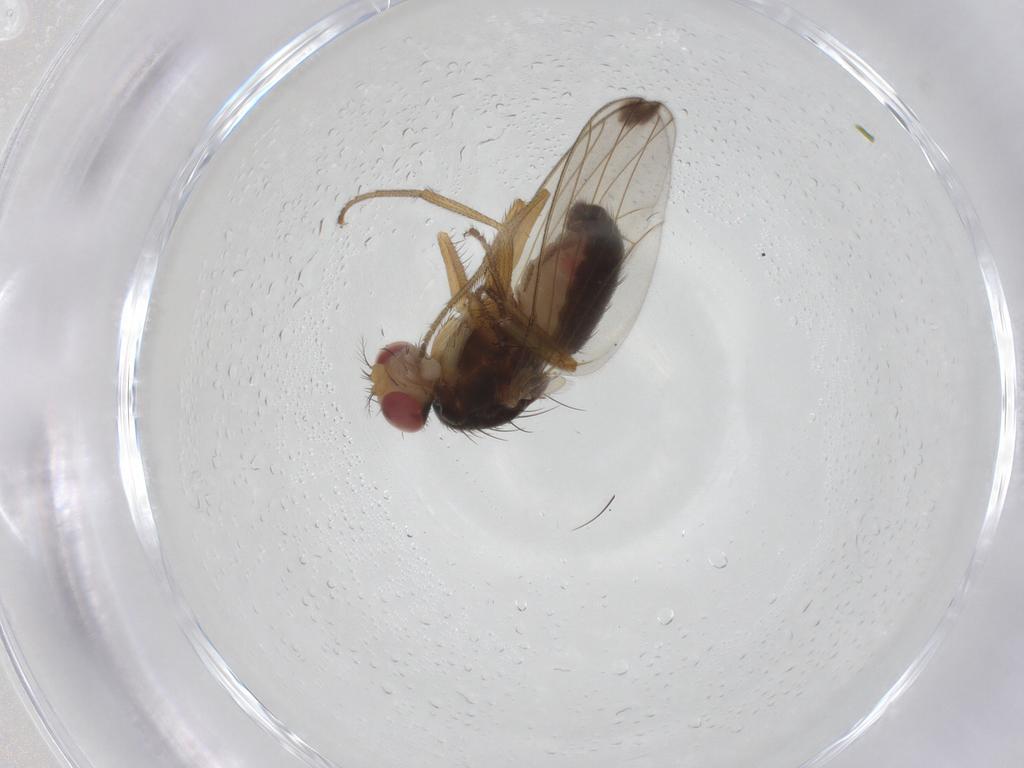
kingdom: Animalia
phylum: Arthropoda
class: Insecta
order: Diptera
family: Drosophilidae
